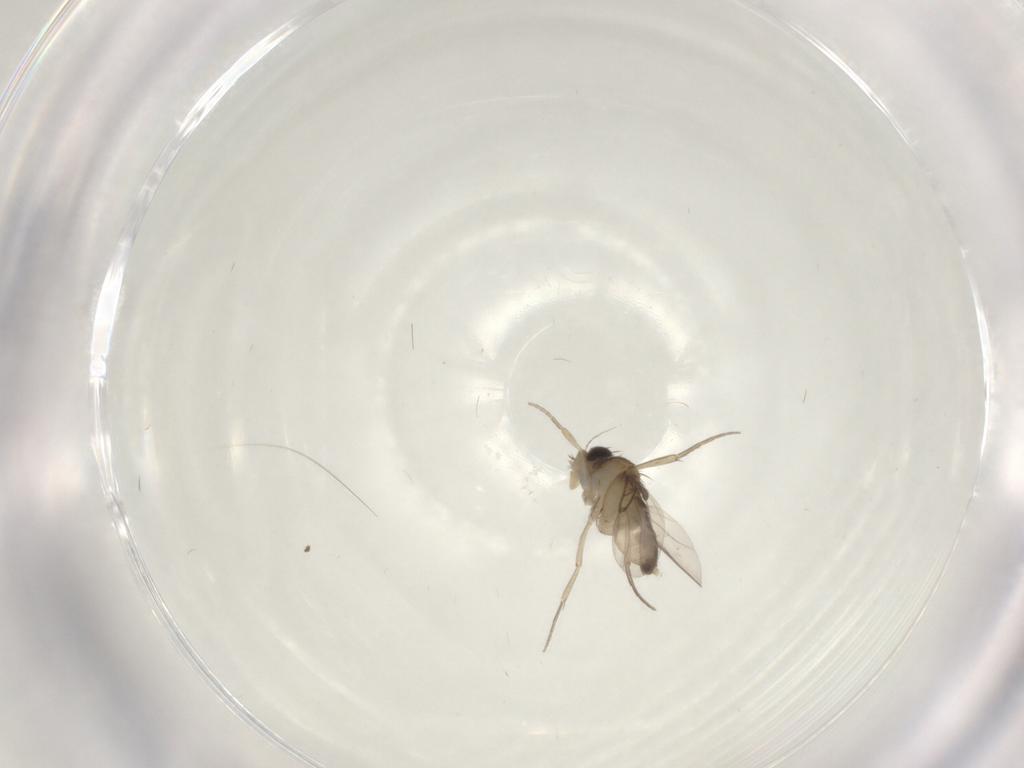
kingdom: Animalia
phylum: Arthropoda
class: Insecta
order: Diptera
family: Phoridae
